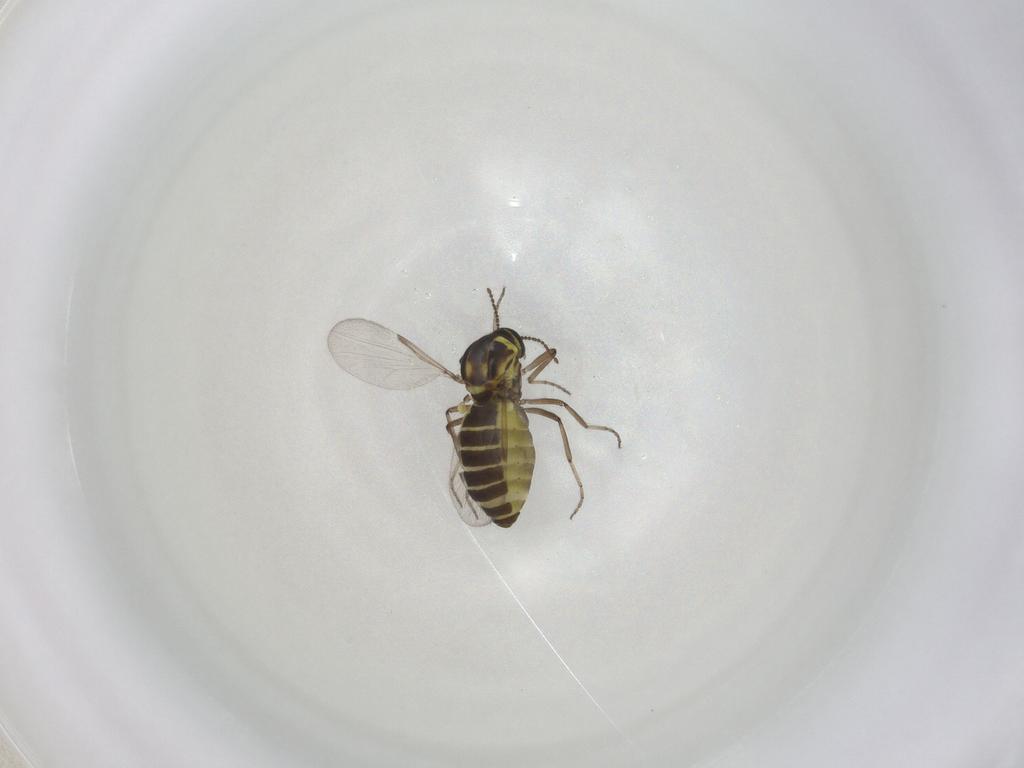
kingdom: Animalia
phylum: Arthropoda
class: Insecta
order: Diptera
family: Ceratopogonidae
